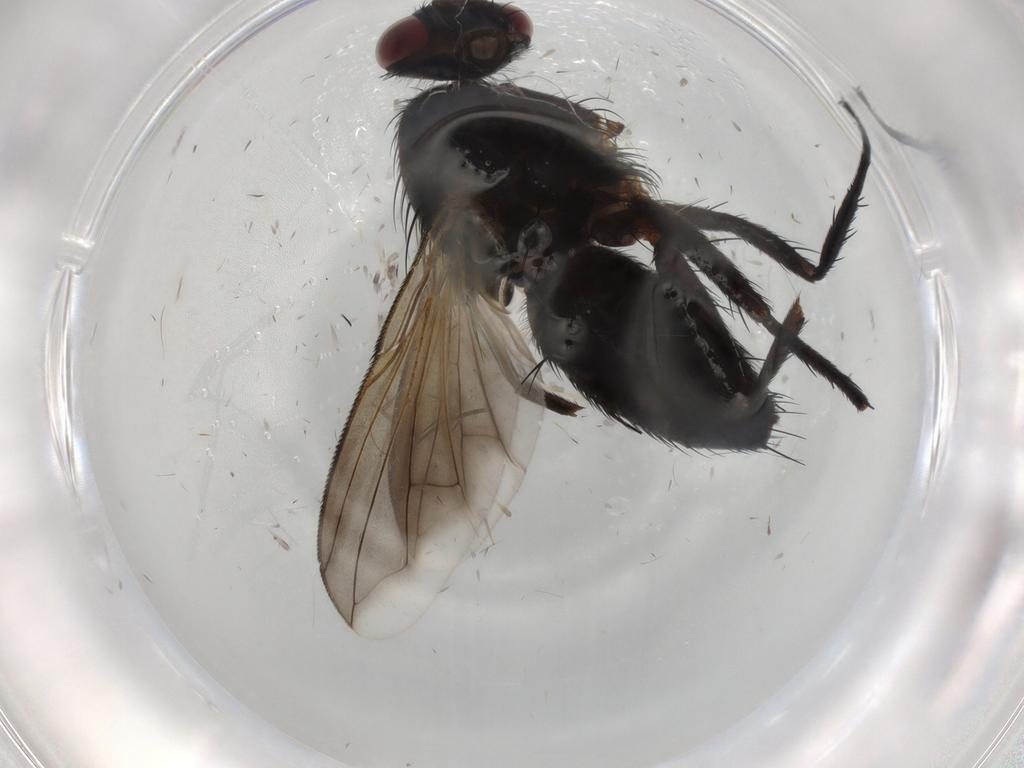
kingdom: Animalia
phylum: Arthropoda
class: Insecta
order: Diptera
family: Tachinidae
